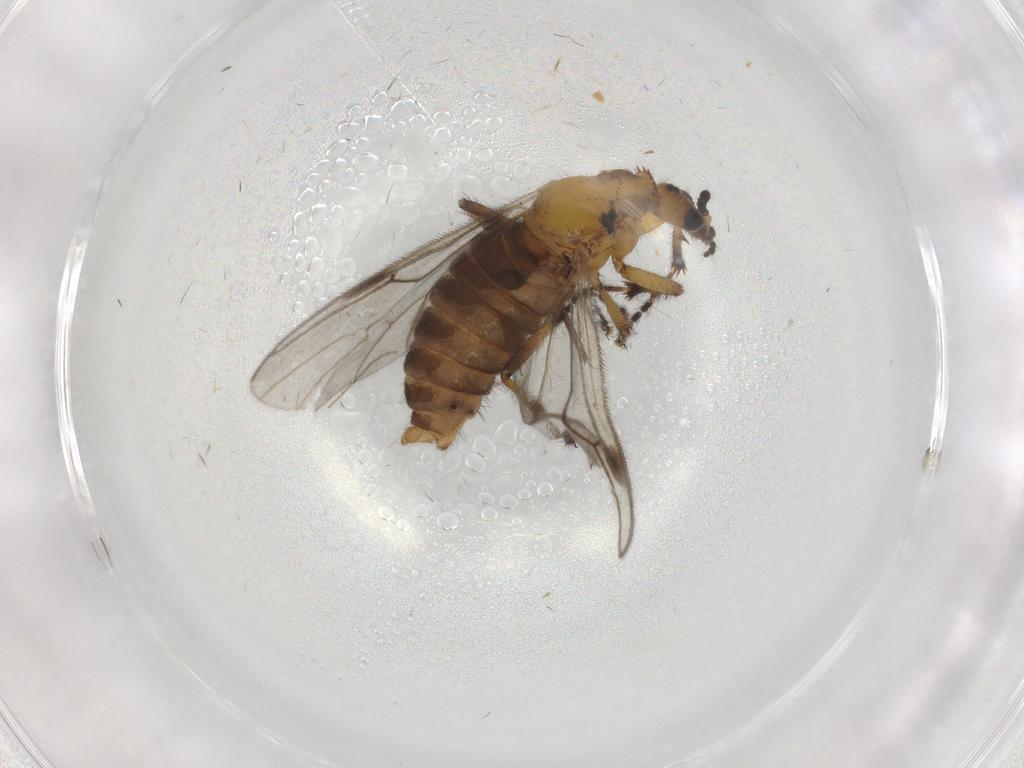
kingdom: Animalia
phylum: Arthropoda
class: Insecta
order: Diptera
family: Bibionidae
